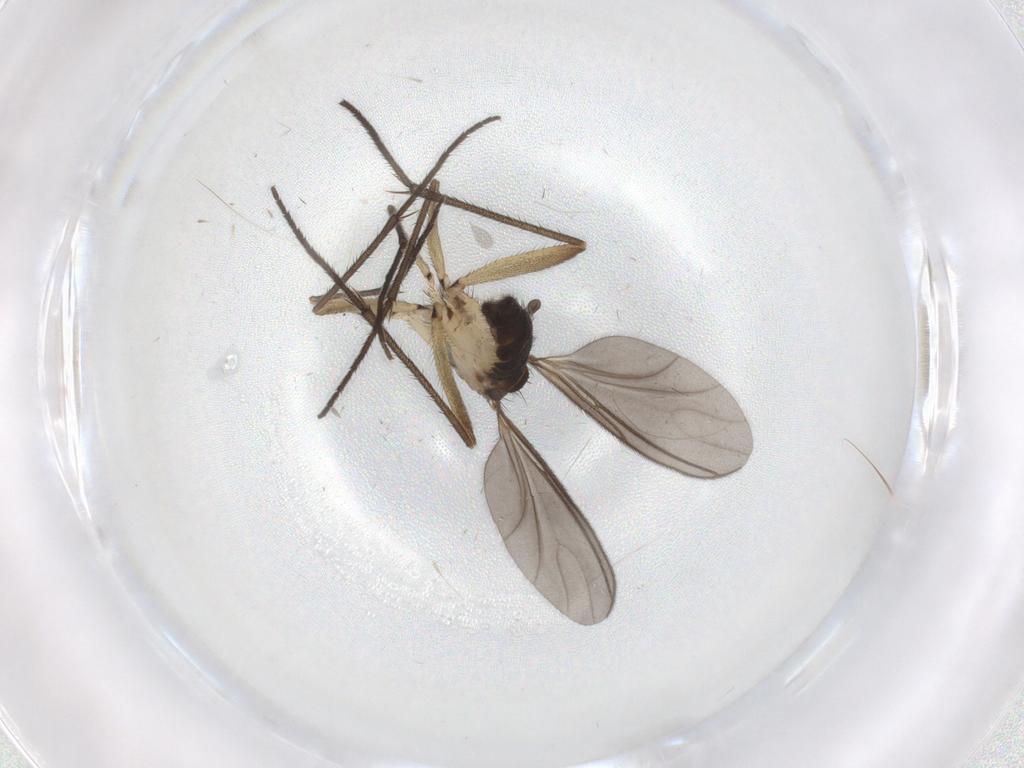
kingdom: Animalia
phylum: Arthropoda
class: Insecta
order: Diptera
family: Sciaridae
